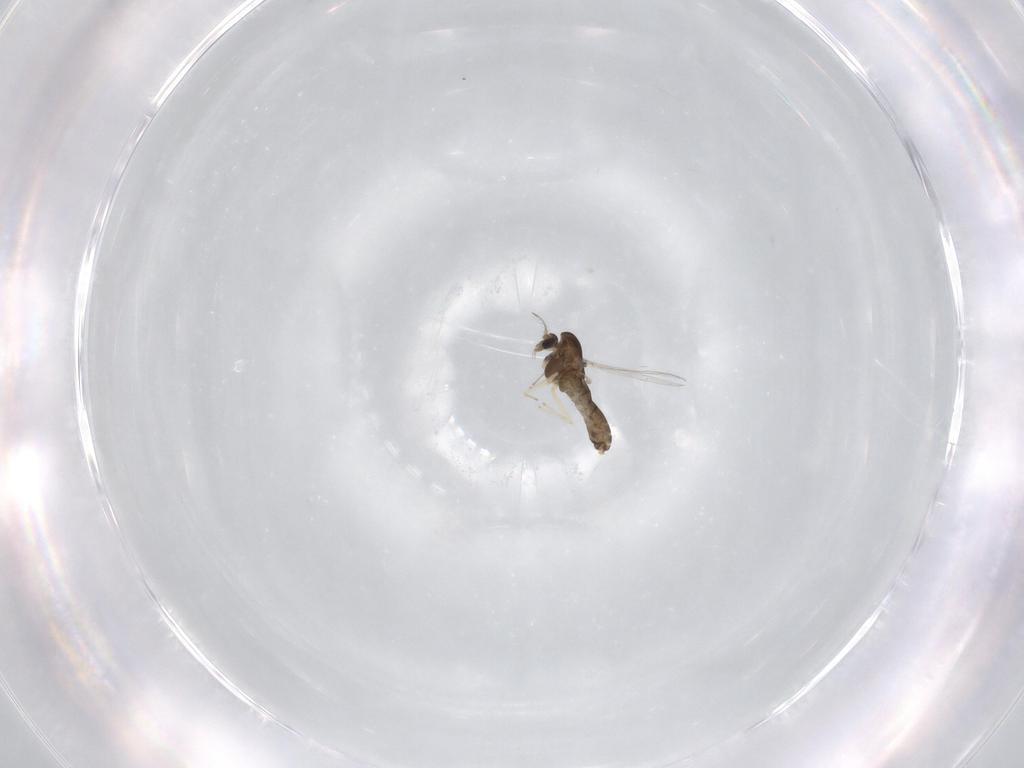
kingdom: Animalia
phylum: Arthropoda
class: Insecta
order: Diptera
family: Chironomidae
